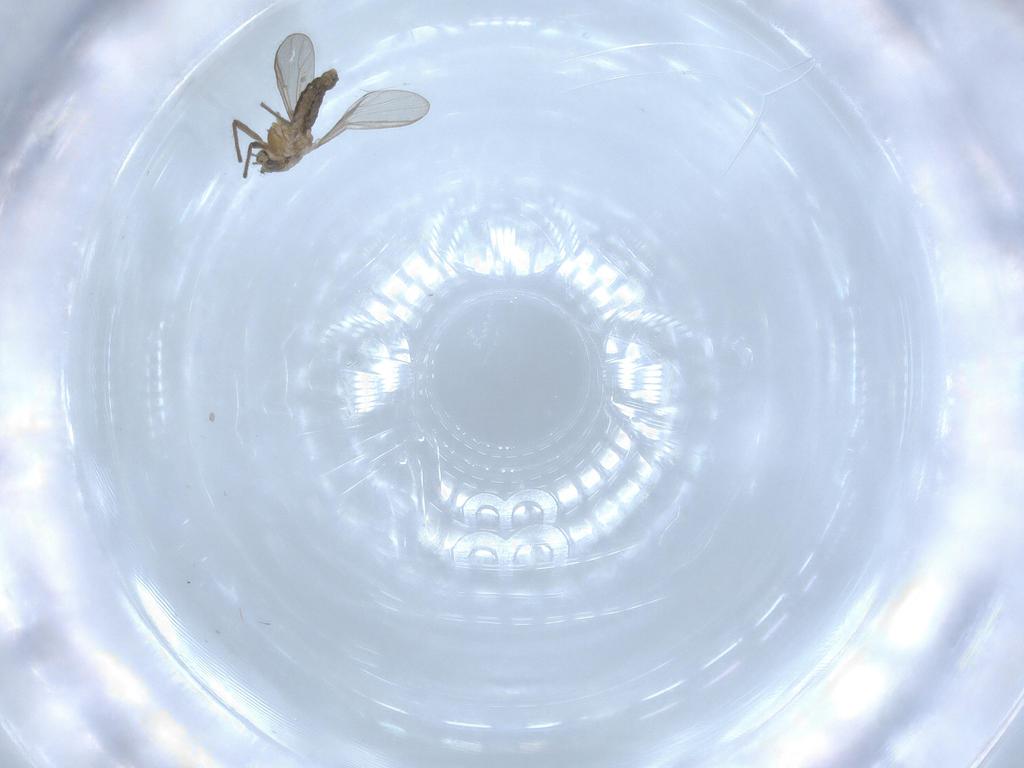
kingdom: Animalia
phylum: Arthropoda
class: Insecta
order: Diptera
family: Chironomidae
